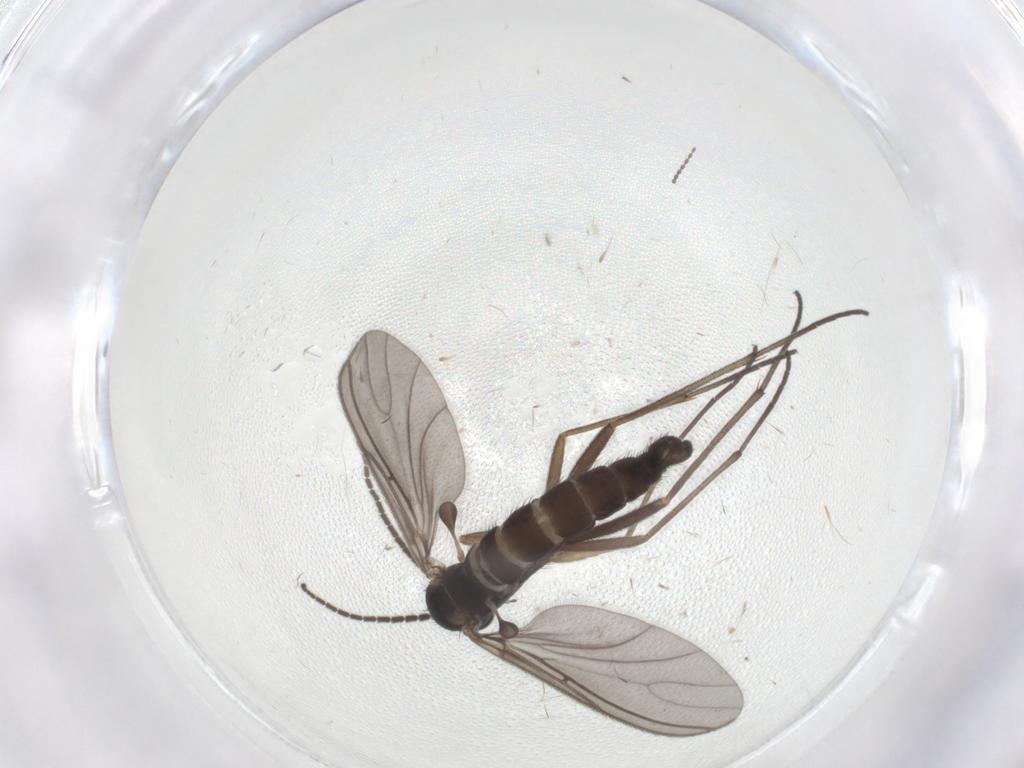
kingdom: Animalia
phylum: Arthropoda
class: Insecta
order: Diptera
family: Sciaridae
